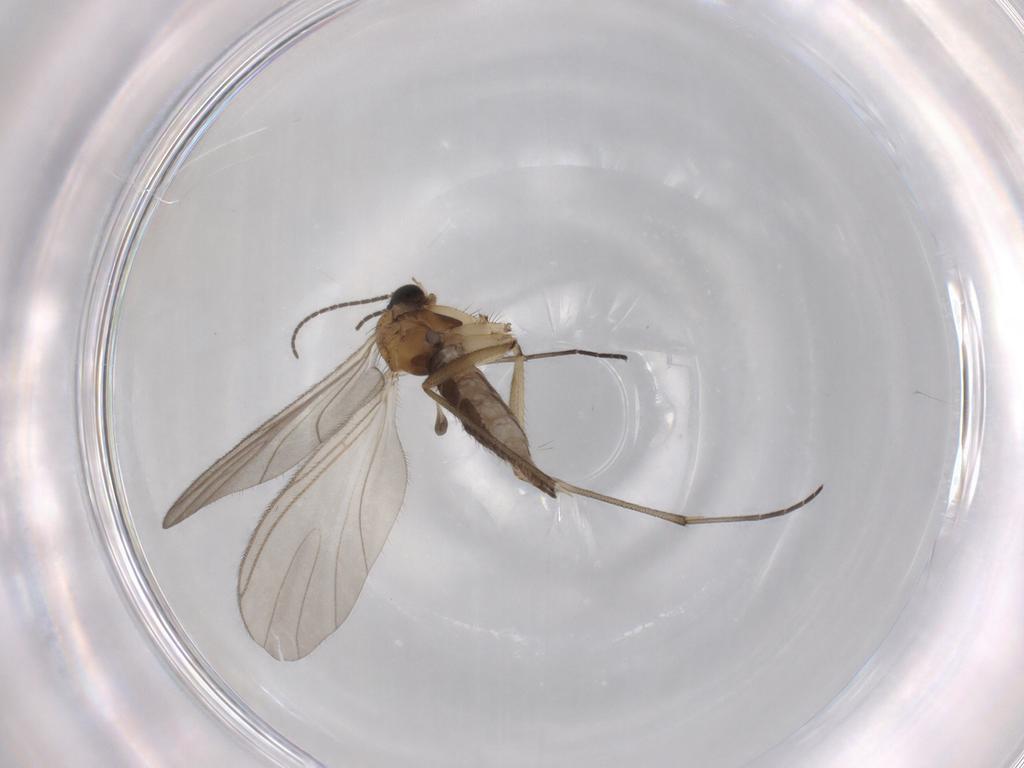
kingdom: Animalia
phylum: Arthropoda
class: Insecta
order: Diptera
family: Sciaridae
